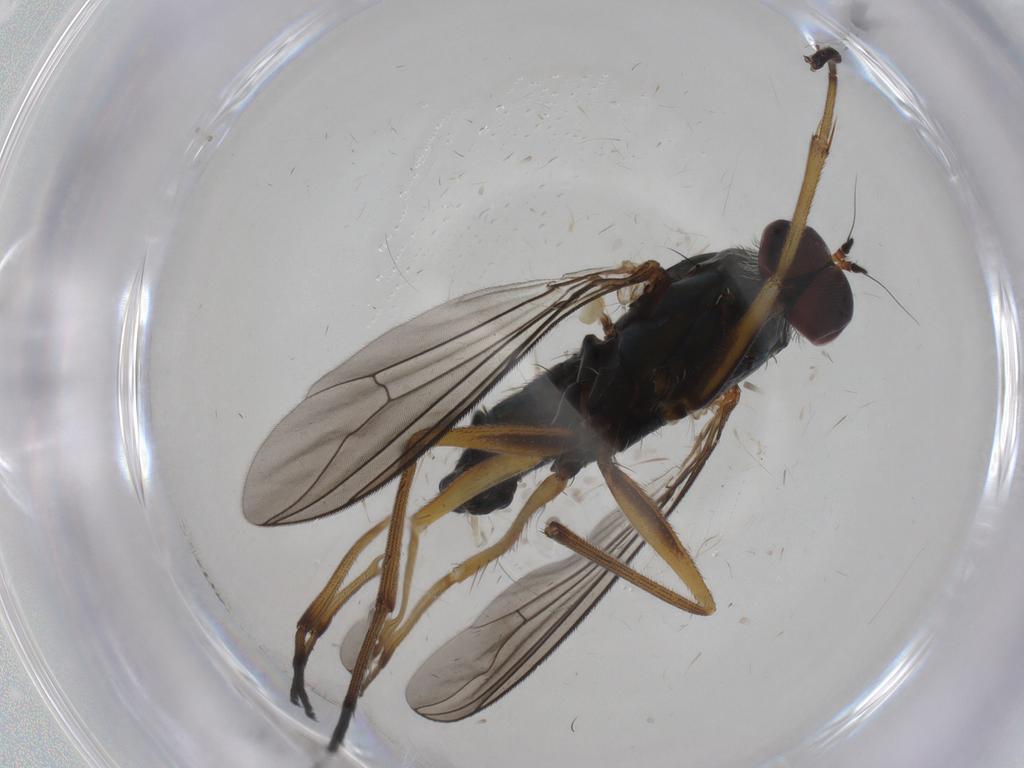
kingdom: Animalia
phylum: Arthropoda
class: Insecta
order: Diptera
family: Dolichopodidae
